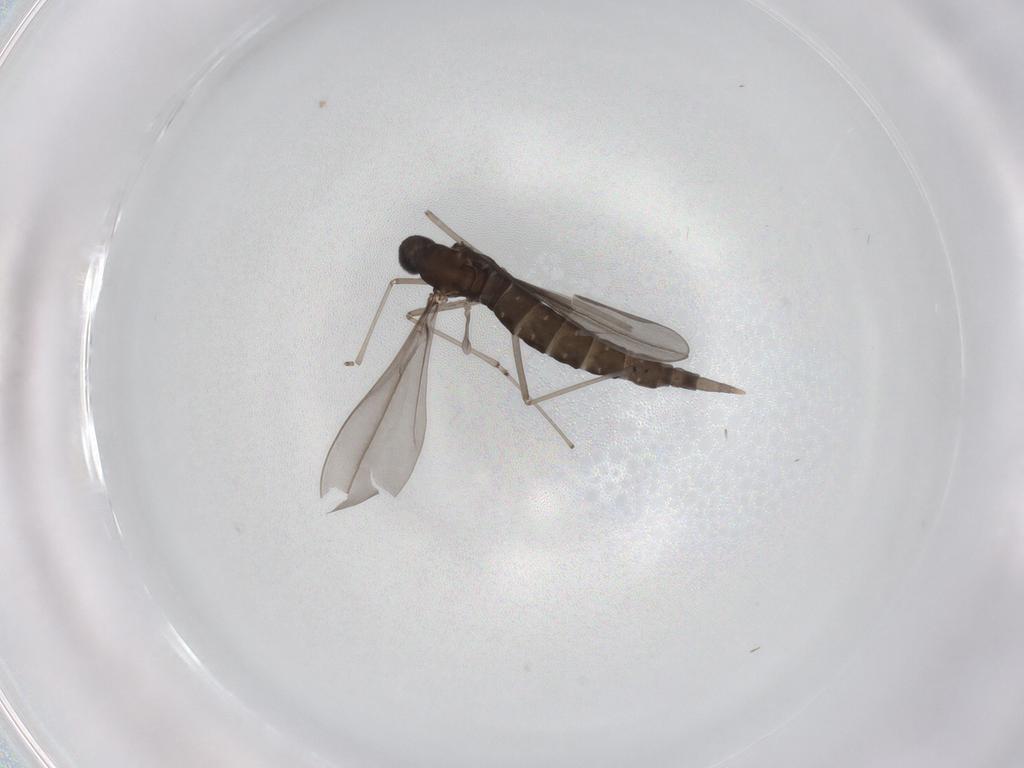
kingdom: Animalia
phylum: Arthropoda
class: Insecta
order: Diptera
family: Cecidomyiidae
